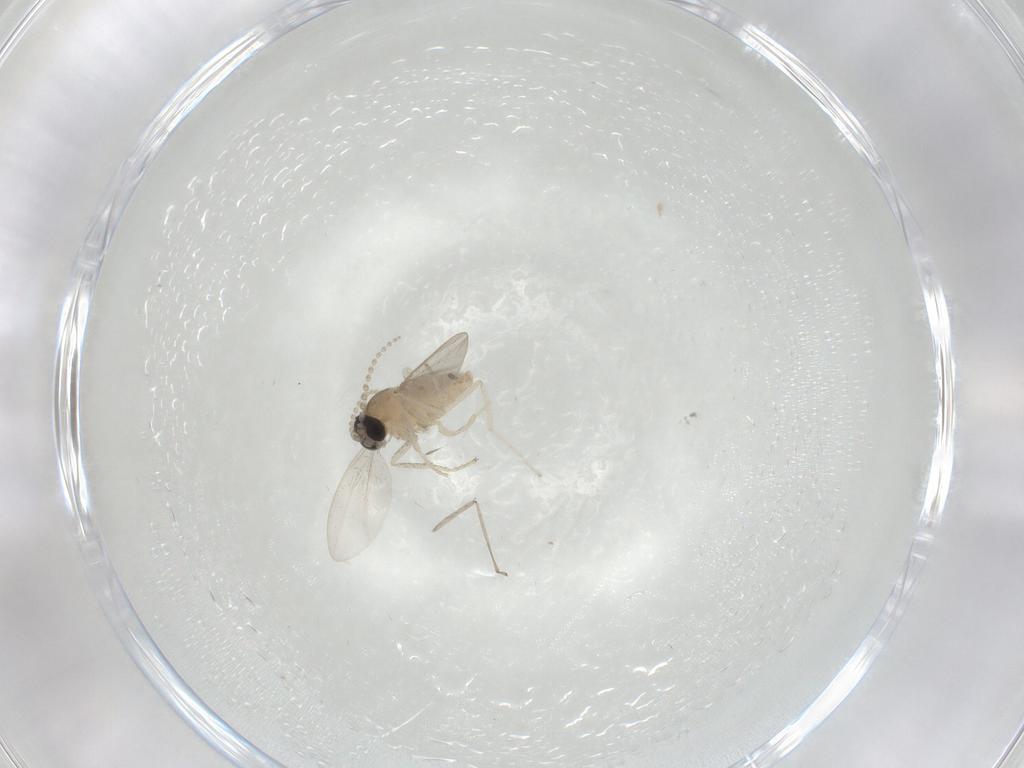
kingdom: Animalia
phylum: Arthropoda
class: Insecta
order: Diptera
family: Cecidomyiidae
